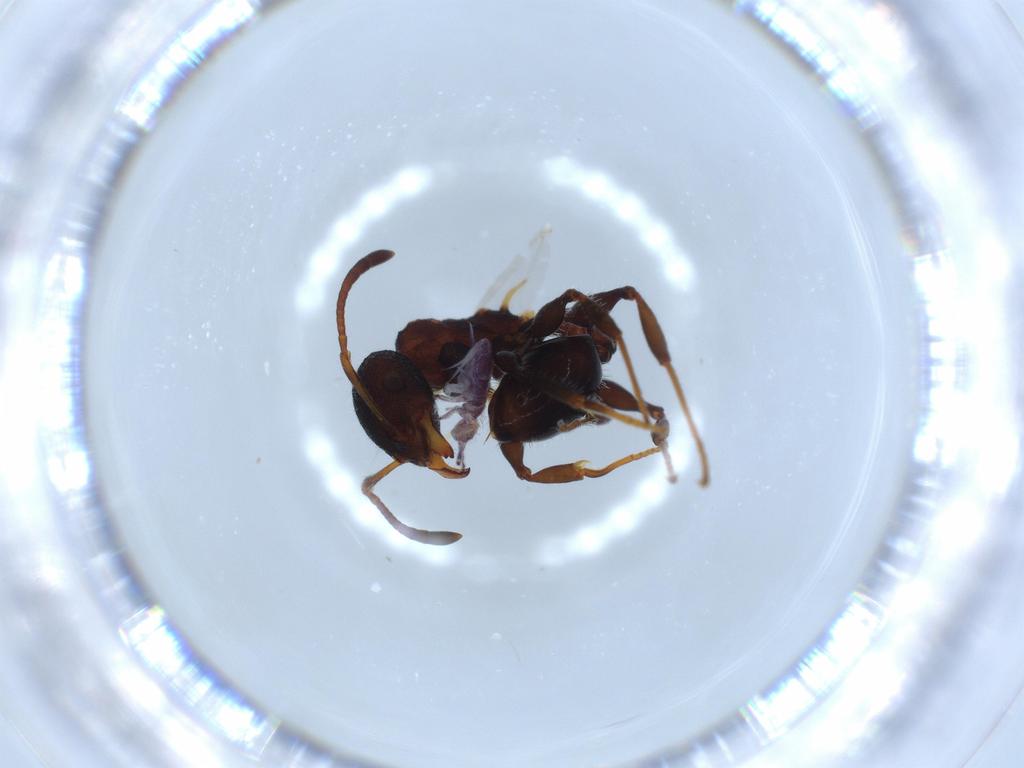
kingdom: Animalia
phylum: Arthropoda
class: Collembola
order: Entomobryomorpha
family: Entomobryidae
